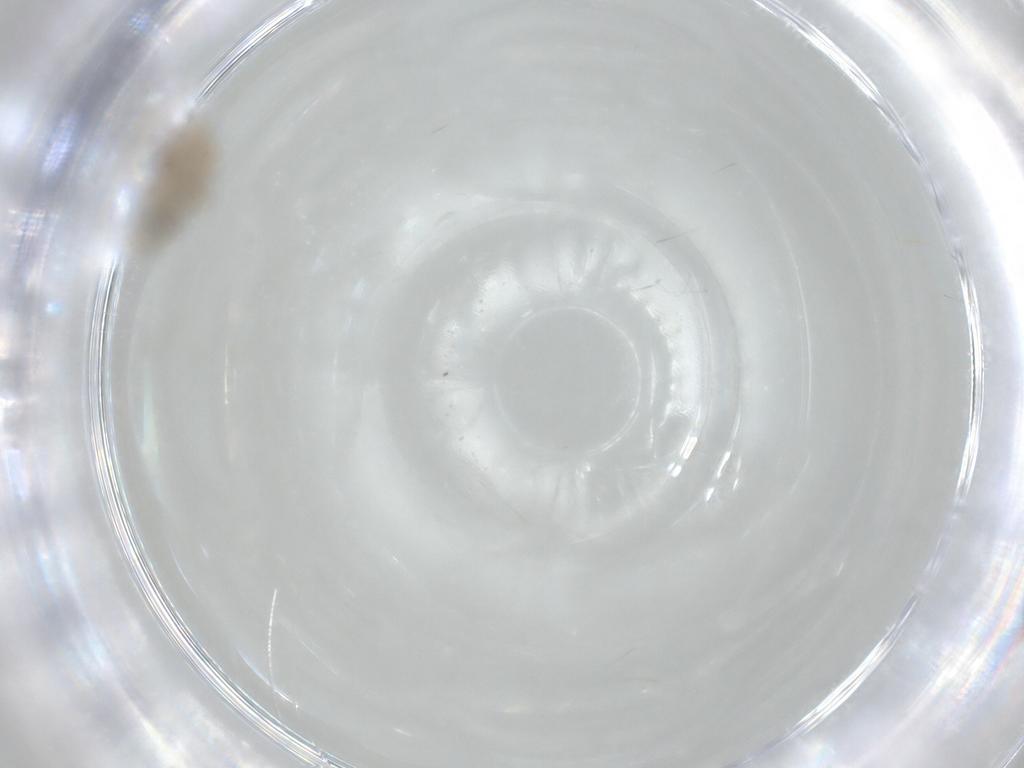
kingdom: Animalia
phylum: Arthropoda
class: Insecta
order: Psocodea
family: Caeciliusidae
